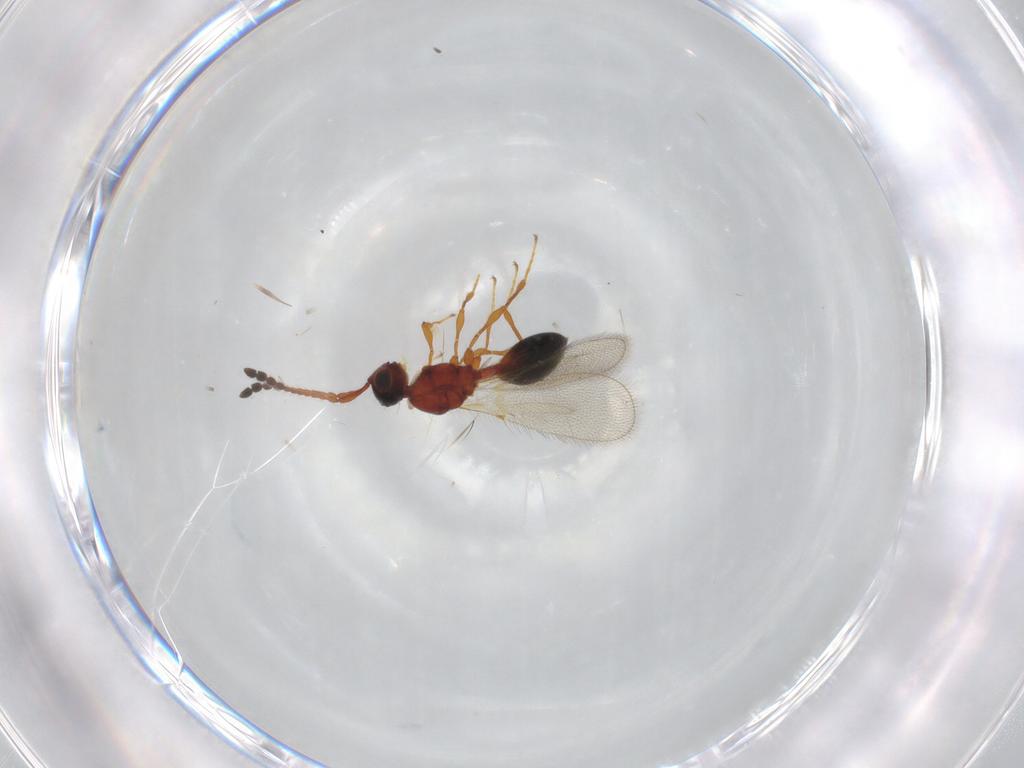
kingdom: Animalia
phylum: Arthropoda
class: Insecta
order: Hymenoptera
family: Diapriidae
